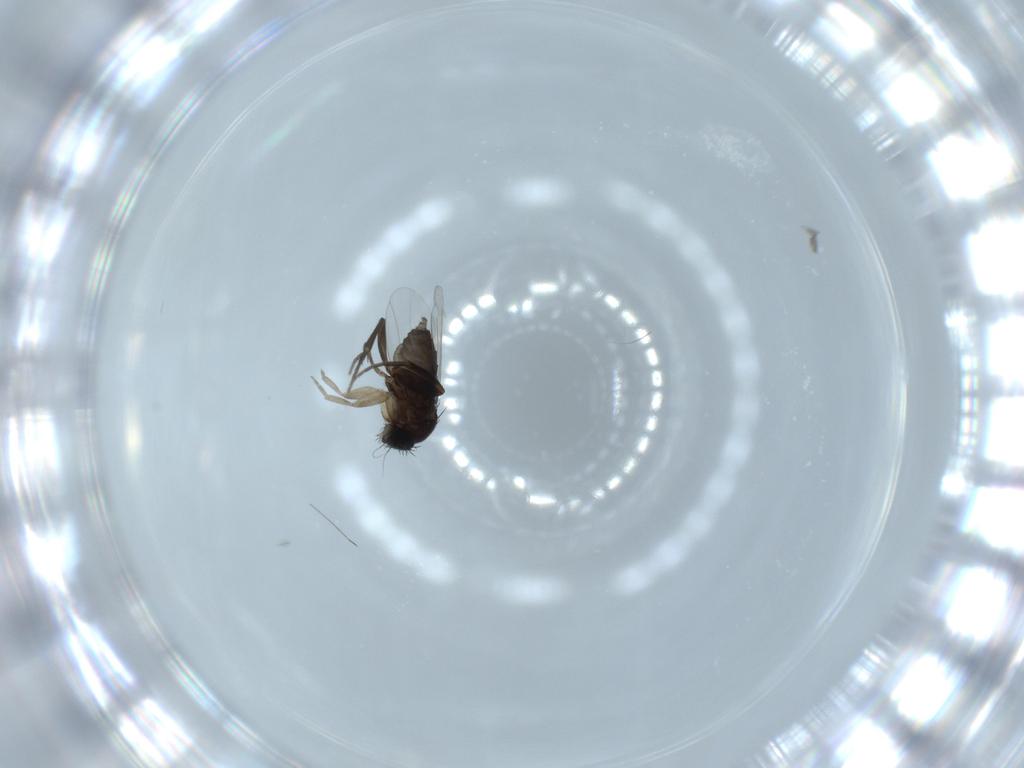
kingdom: Animalia
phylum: Arthropoda
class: Insecta
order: Diptera
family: Phoridae
